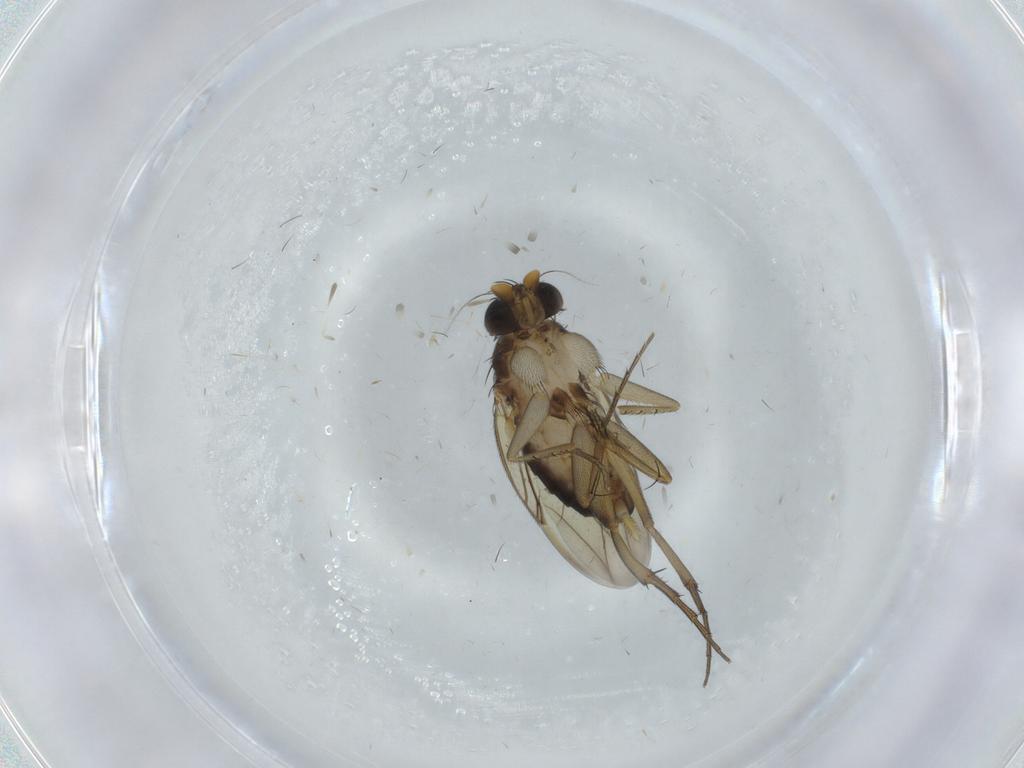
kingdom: Animalia
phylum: Arthropoda
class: Insecta
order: Diptera
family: Phoridae
